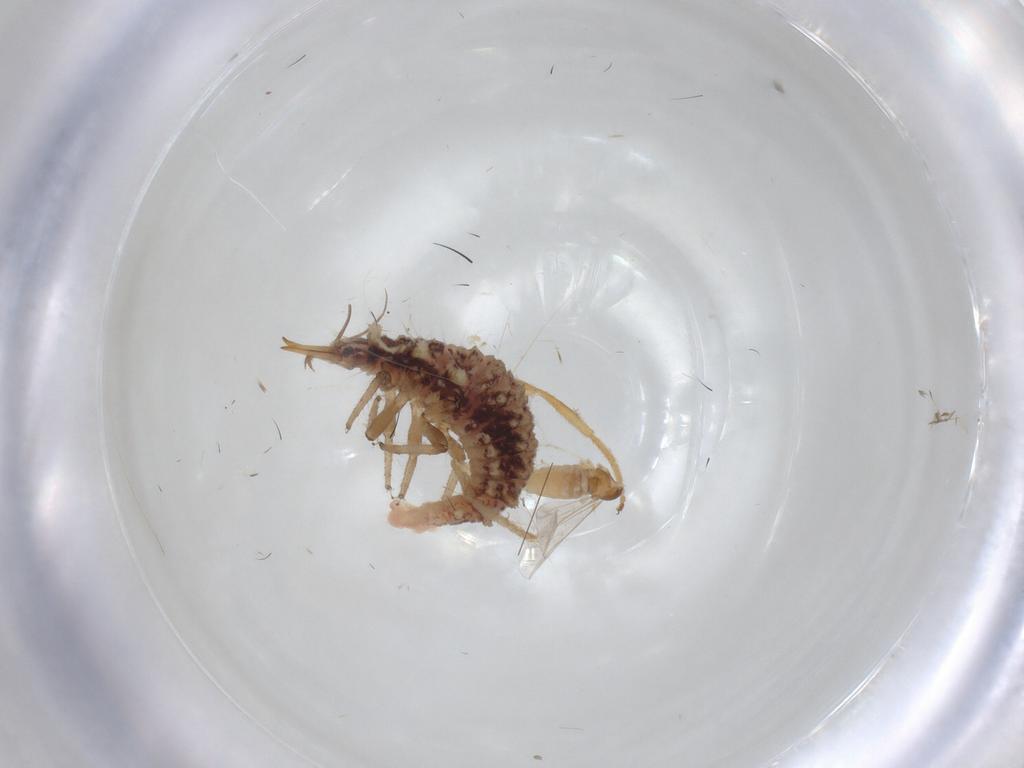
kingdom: Animalia
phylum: Arthropoda
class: Insecta
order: Diptera
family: Chloropidae
